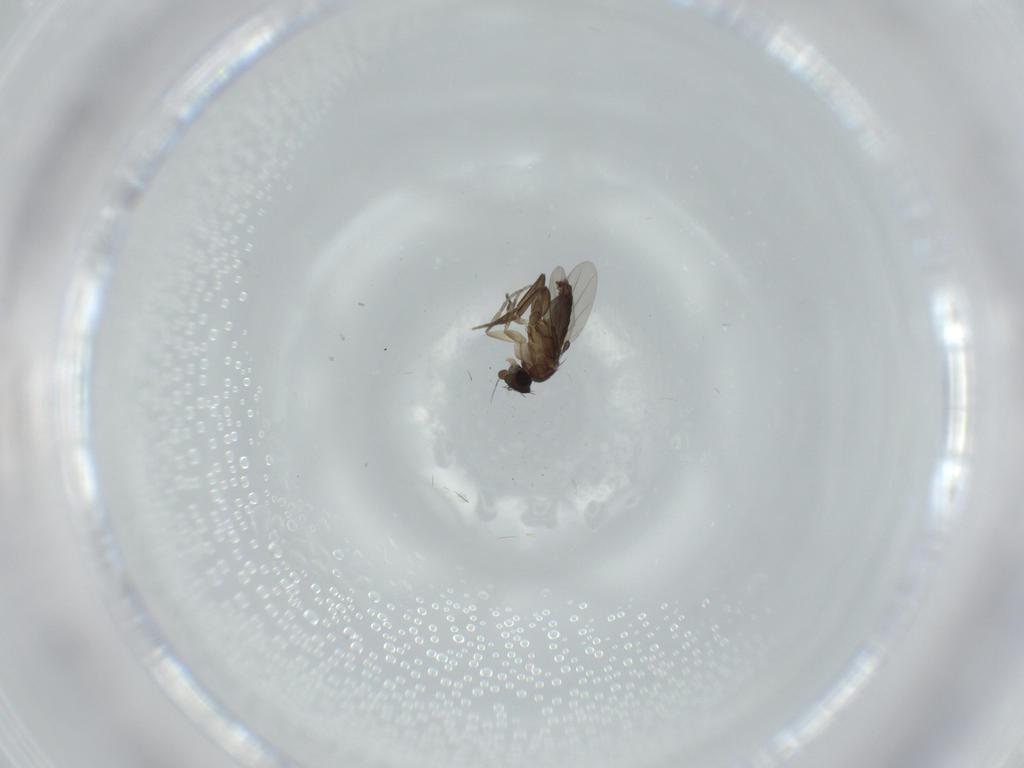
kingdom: Animalia
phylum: Arthropoda
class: Insecta
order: Diptera
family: Phoridae
